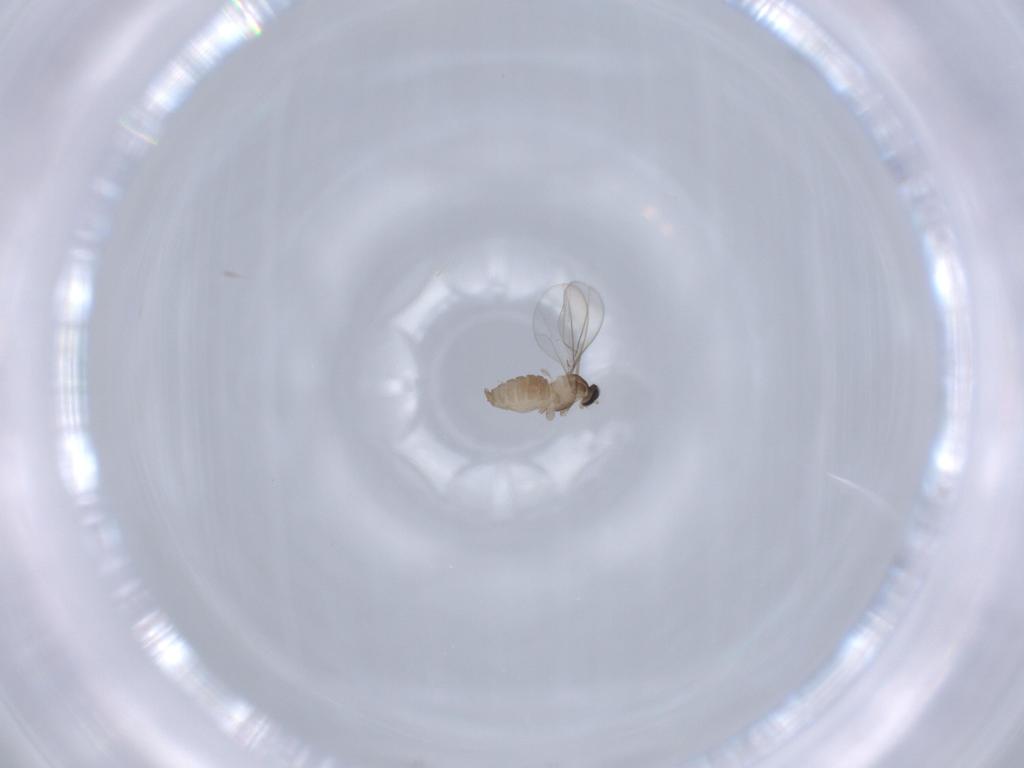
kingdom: Animalia
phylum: Arthropoda
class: Insecta
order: Diptera
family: Cecidomyiidae
